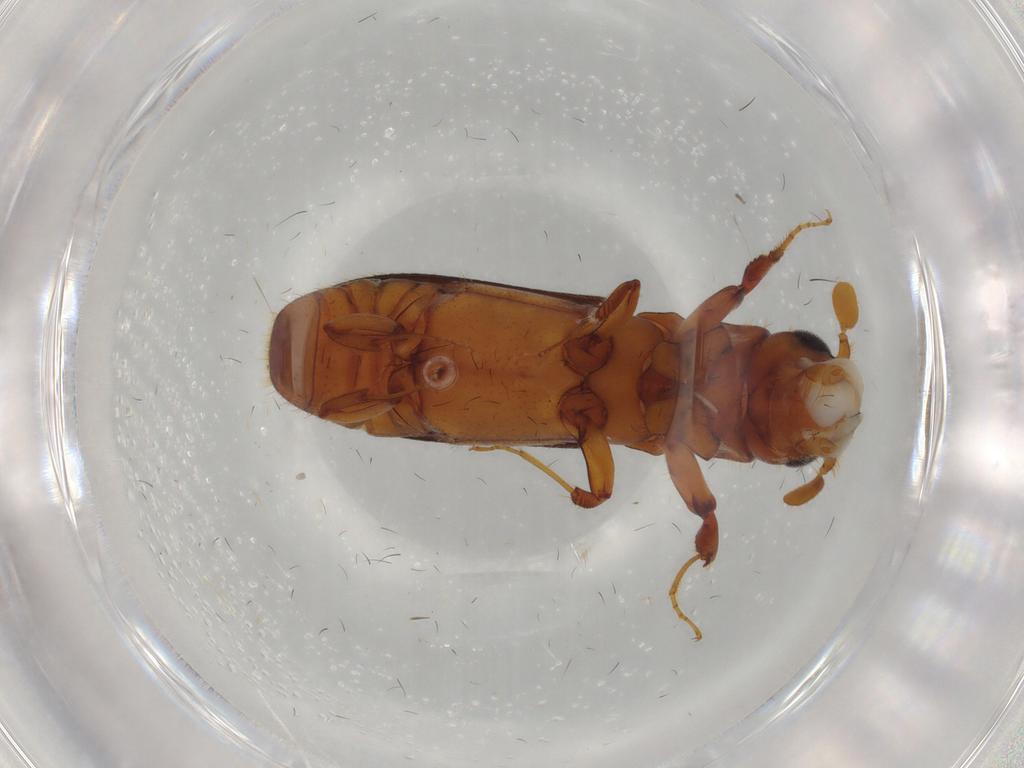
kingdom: Animalia
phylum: Arthropoda
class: Insecta
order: Coleoptera
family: Curculionidae
